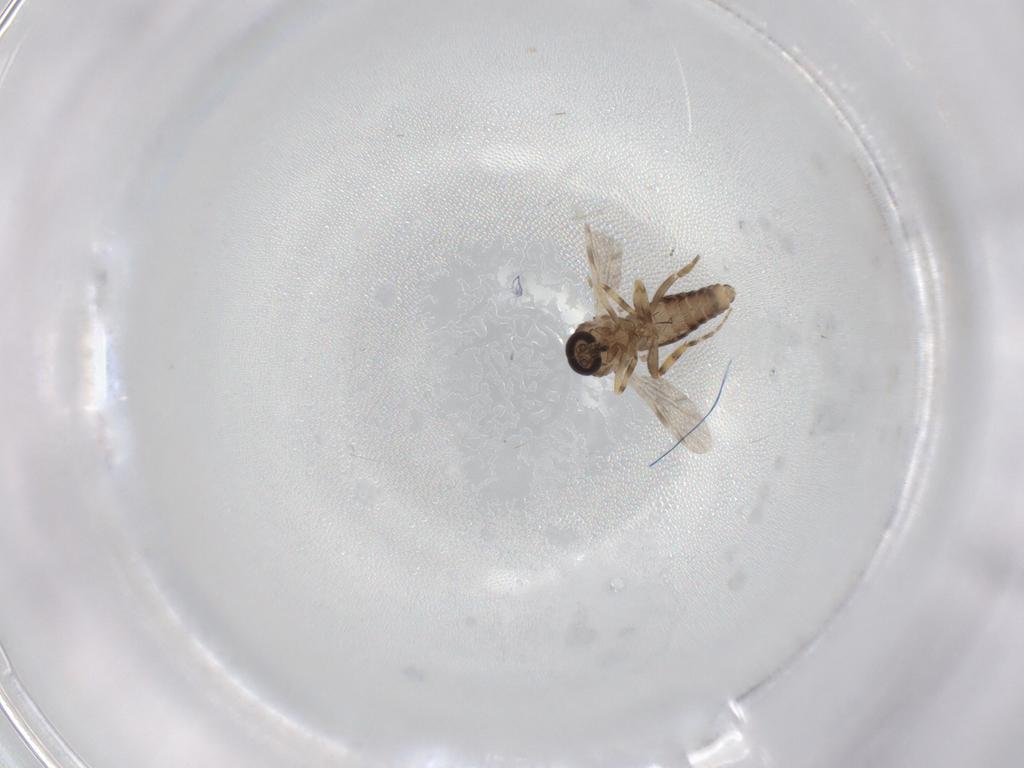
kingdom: Animalia
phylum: Arthropoda
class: Insecta
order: Diptera
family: Ceratopogonidae
